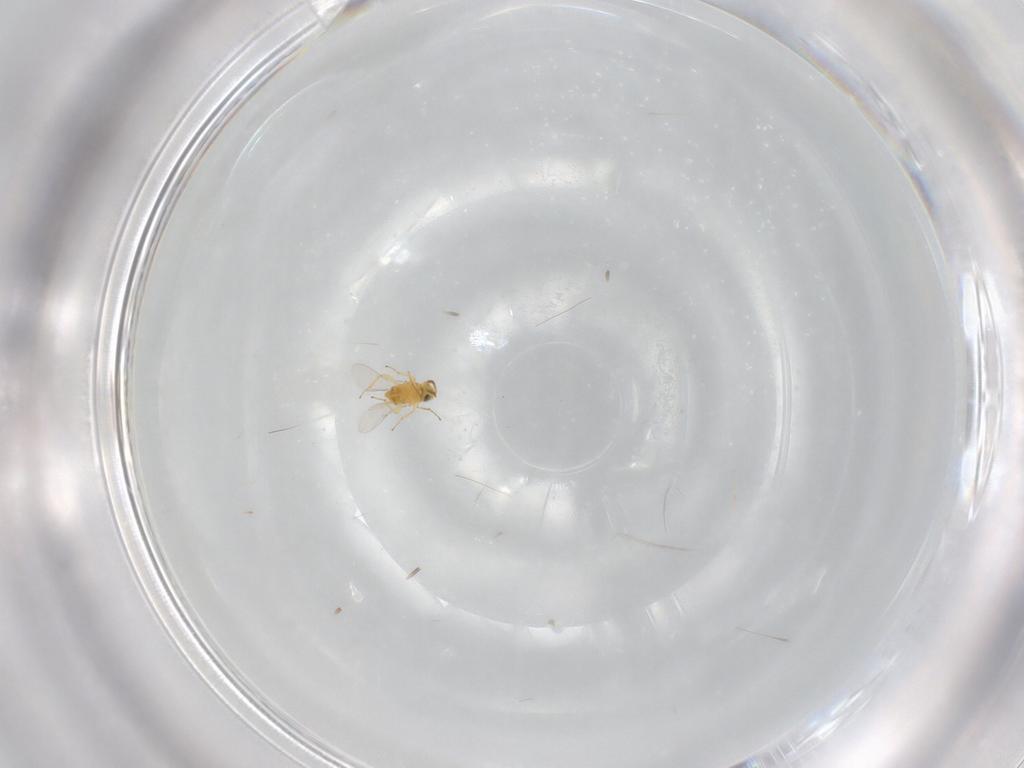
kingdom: Animalia
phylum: Arthropoda
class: Insecta
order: Hymenoptera
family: Encyrtidae
